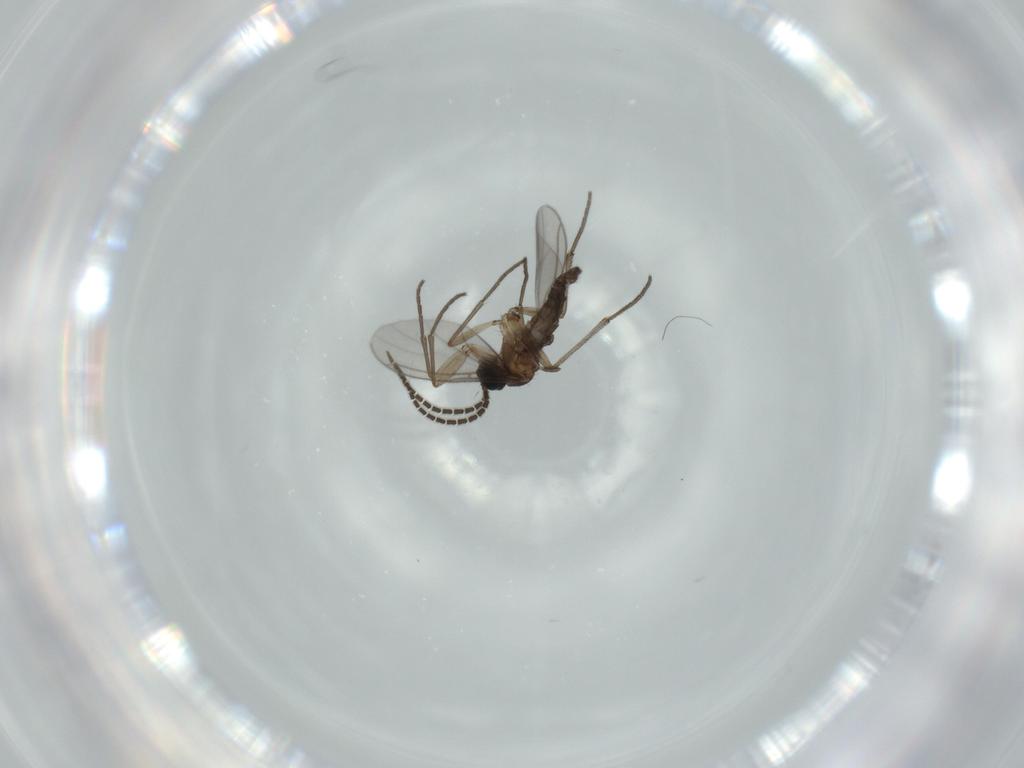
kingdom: Animalia
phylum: Arthropoda
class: Insecta
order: Diptera
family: Sciaridae
